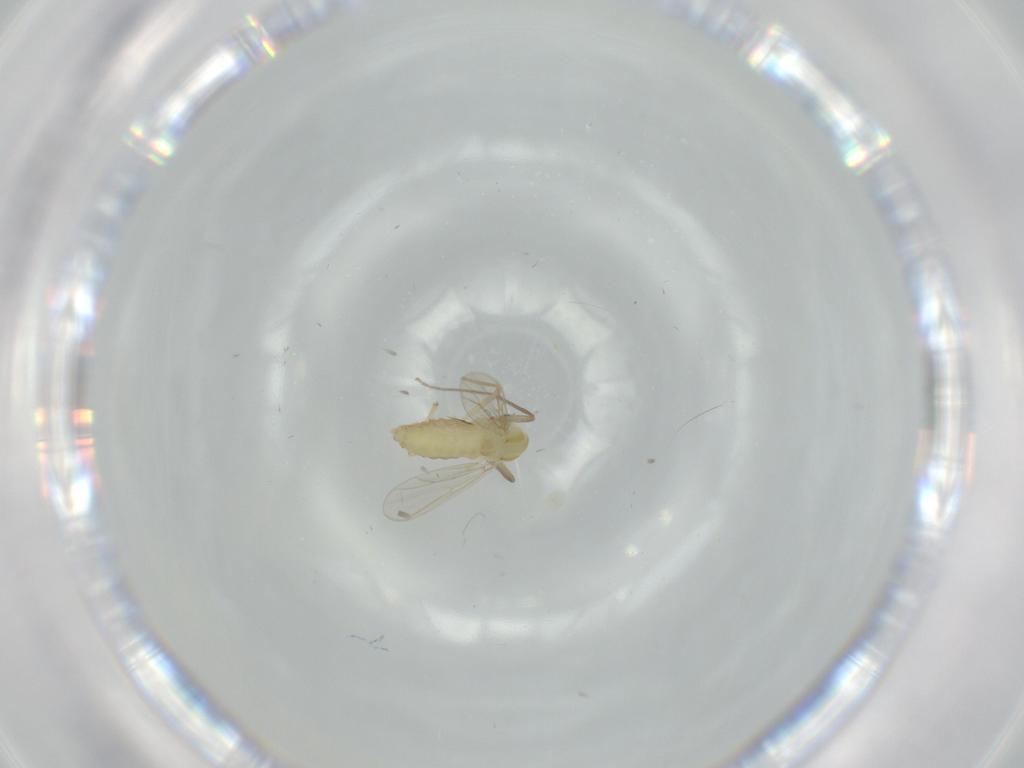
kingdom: Animalia
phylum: Arthropoda
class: Insecta
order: Diptera
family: Chironomidae
